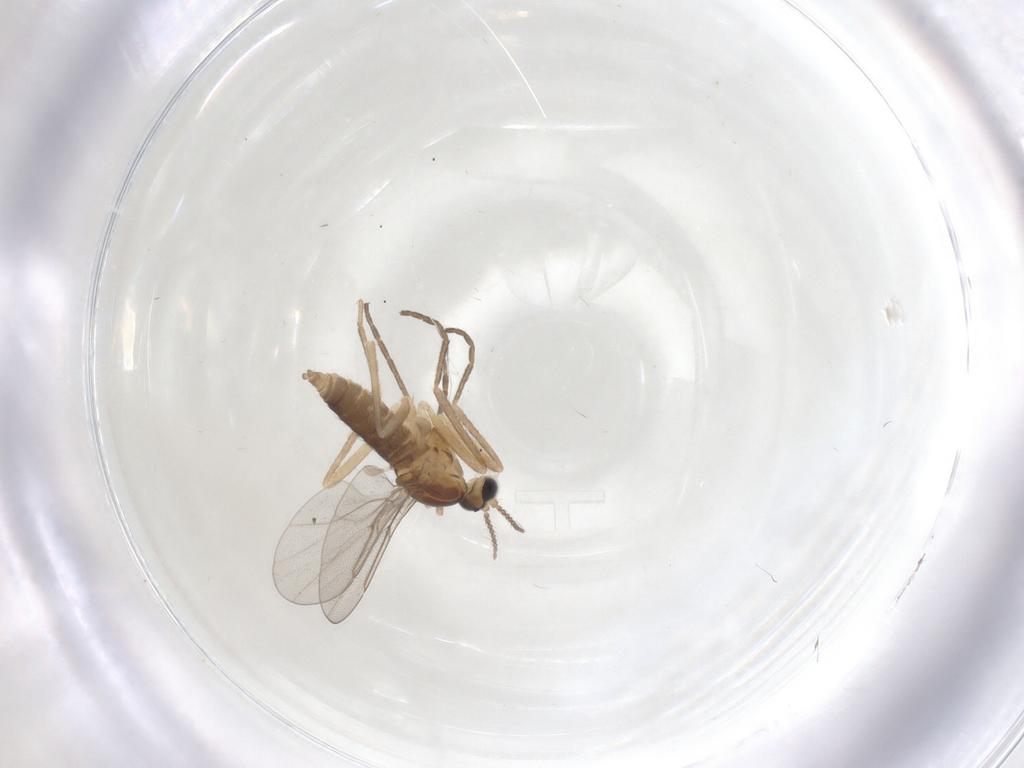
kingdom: Animalia
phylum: Arthropoda
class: Insecta
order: Diptera
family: Cecidomyiidae
